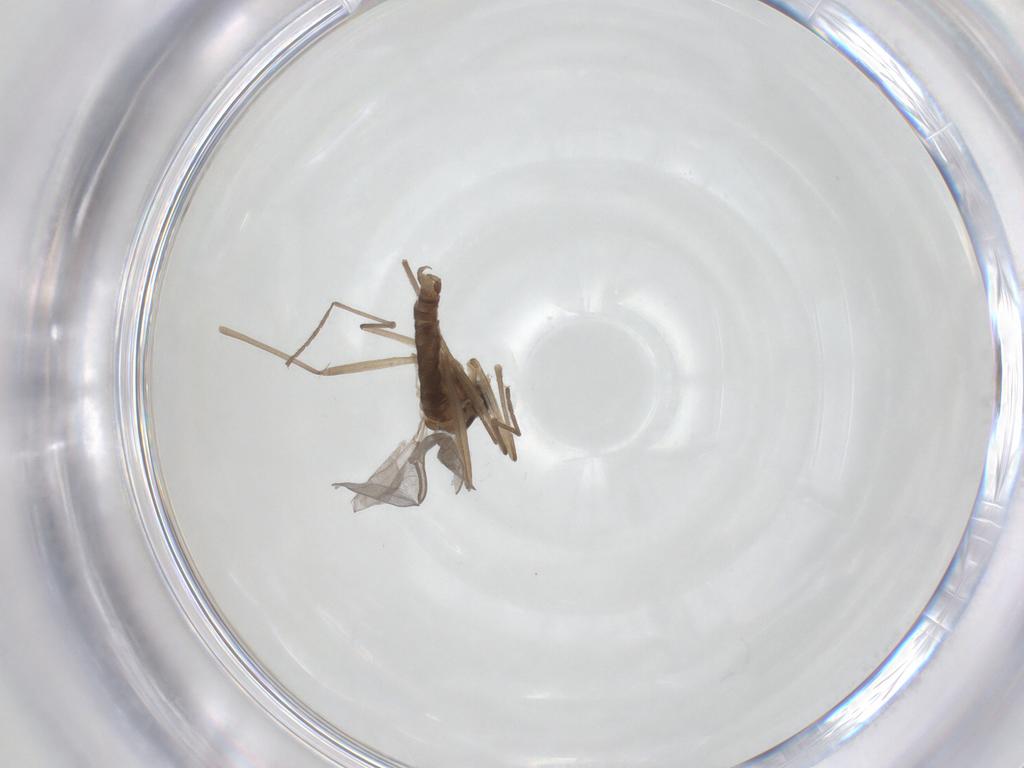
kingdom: Animalia
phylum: Arthropoda
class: Insecta
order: Diptera
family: Cecidomyiidae
